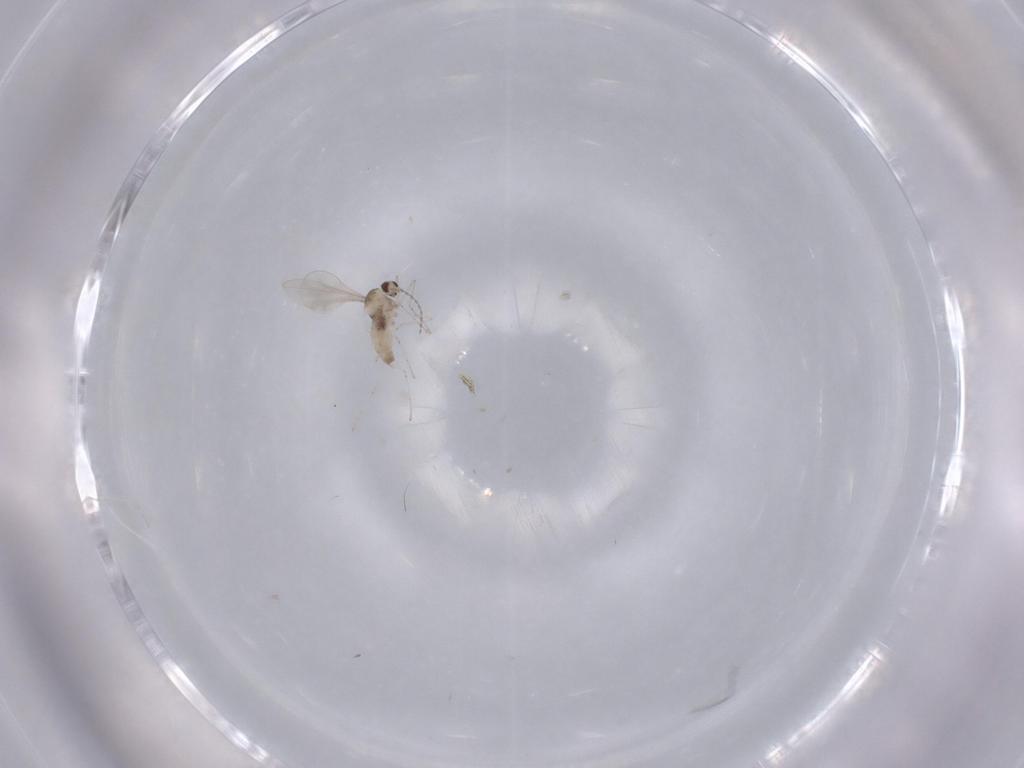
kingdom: Animalia
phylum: Arthropoda
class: Insecta
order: Diptera
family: Cecidomyiidae
